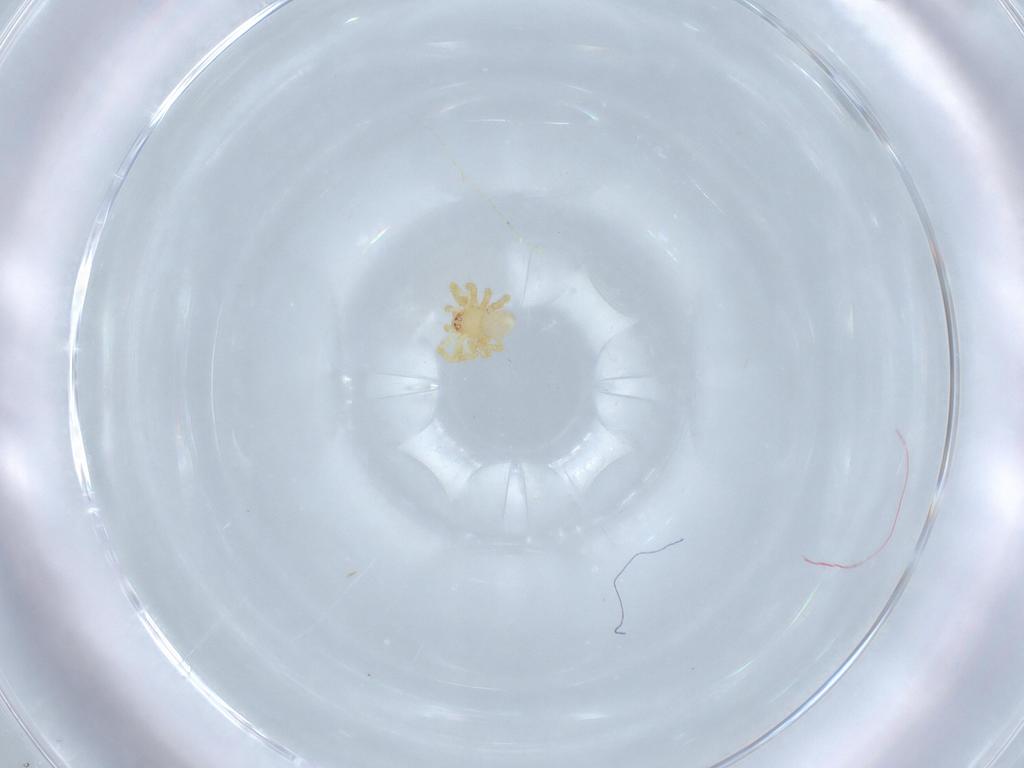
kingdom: Animalia
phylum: Arthropoda
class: Arachnida
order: Araneae
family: Theridiidae
